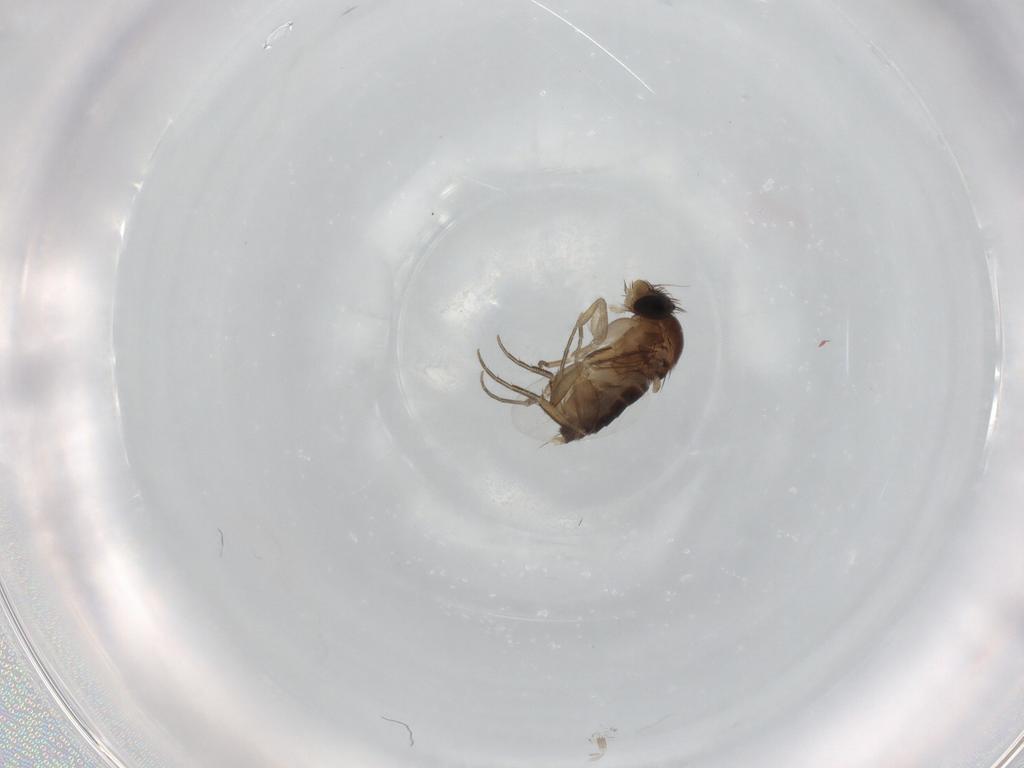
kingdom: Animalia
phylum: Arthropoda
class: Insecta
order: Diptera
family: Phoridae
